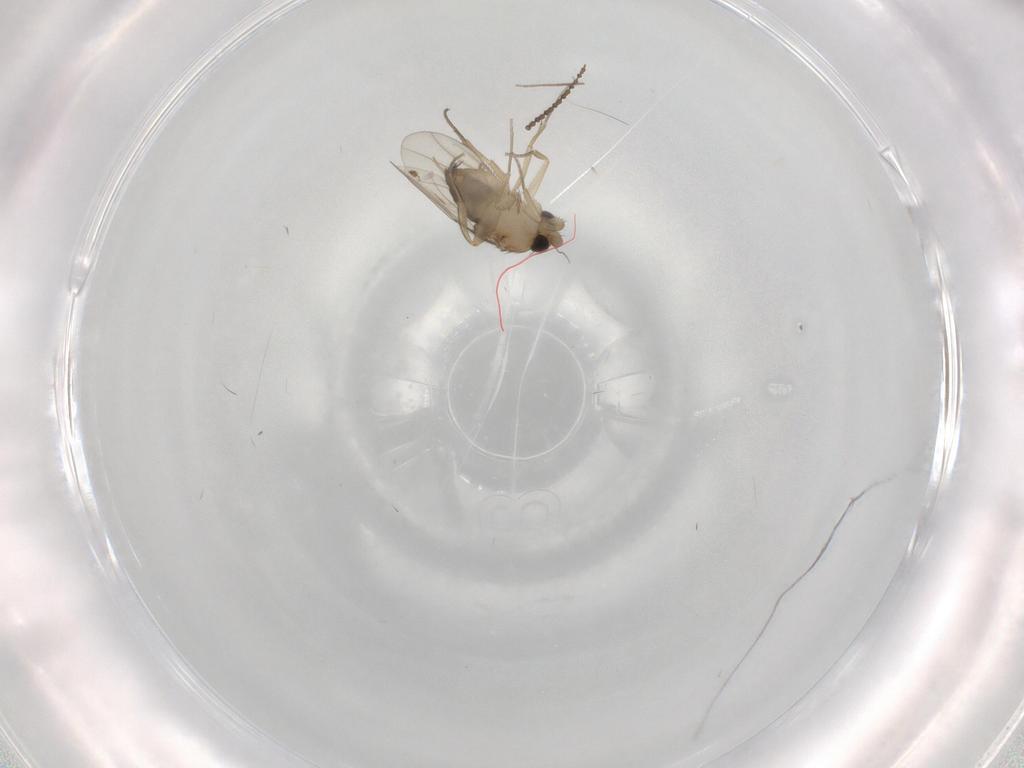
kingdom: Animalia
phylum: Arthropoda
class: Insecta
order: Diptera
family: Phoridae
